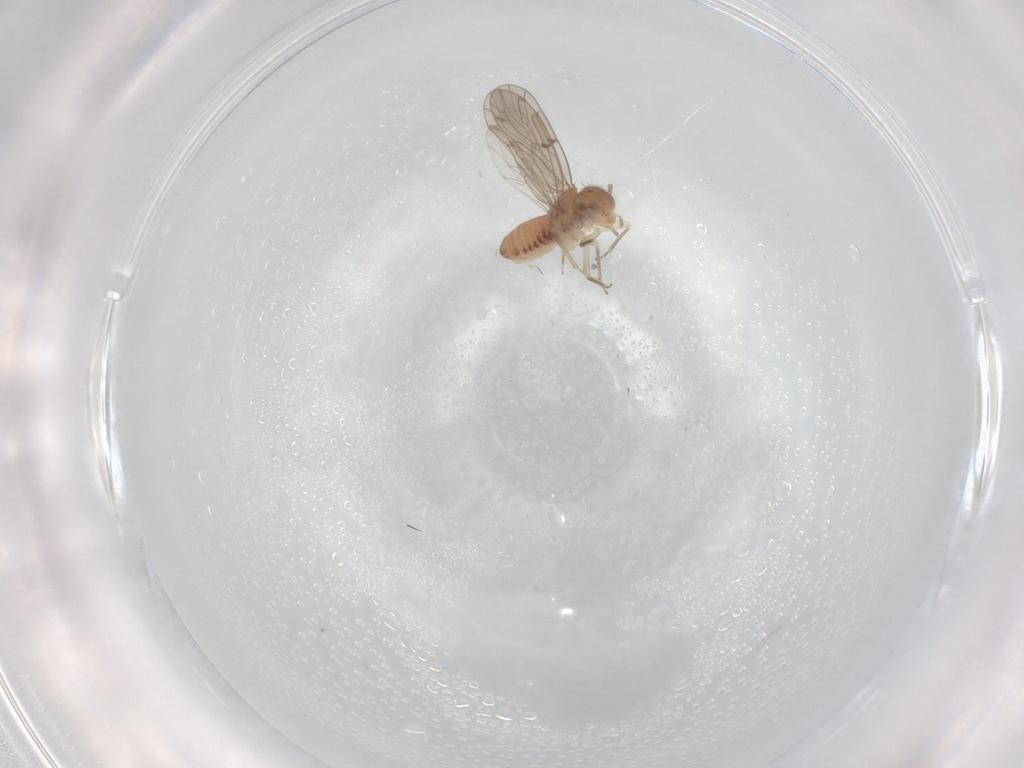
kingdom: Animalia
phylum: Arthropoda
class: Insecta
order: Psocodea
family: Ectopsocidae
